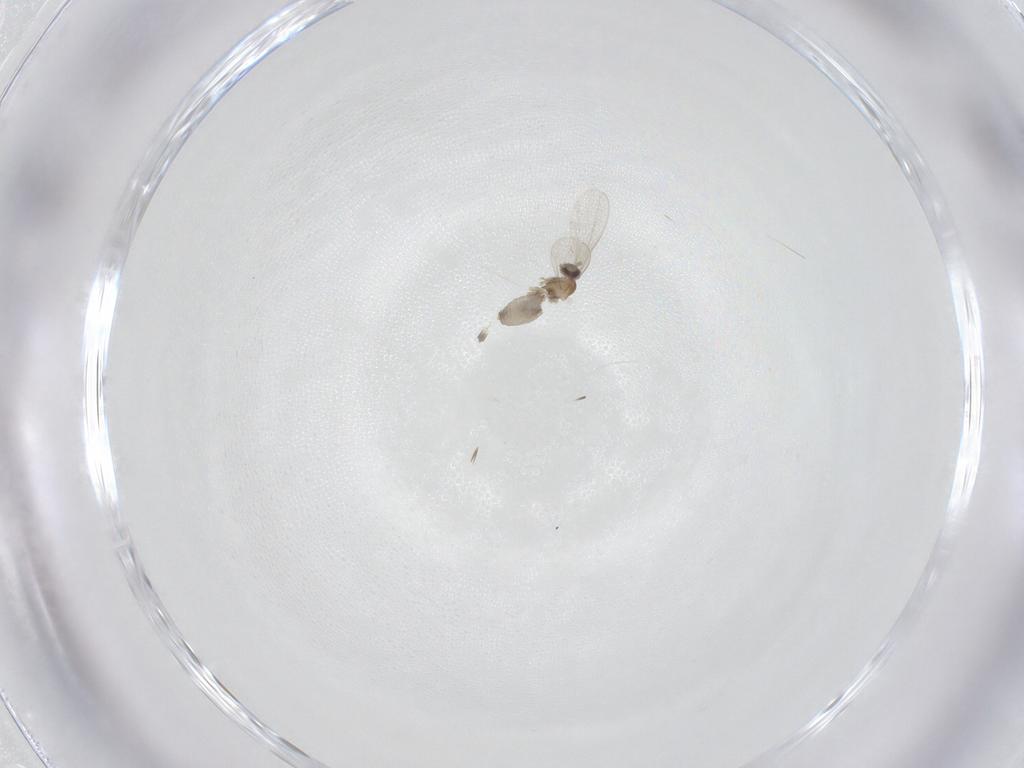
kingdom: Animalia
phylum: Arthropoda
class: Insecta
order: Diptera
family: Cecidomyiidae
